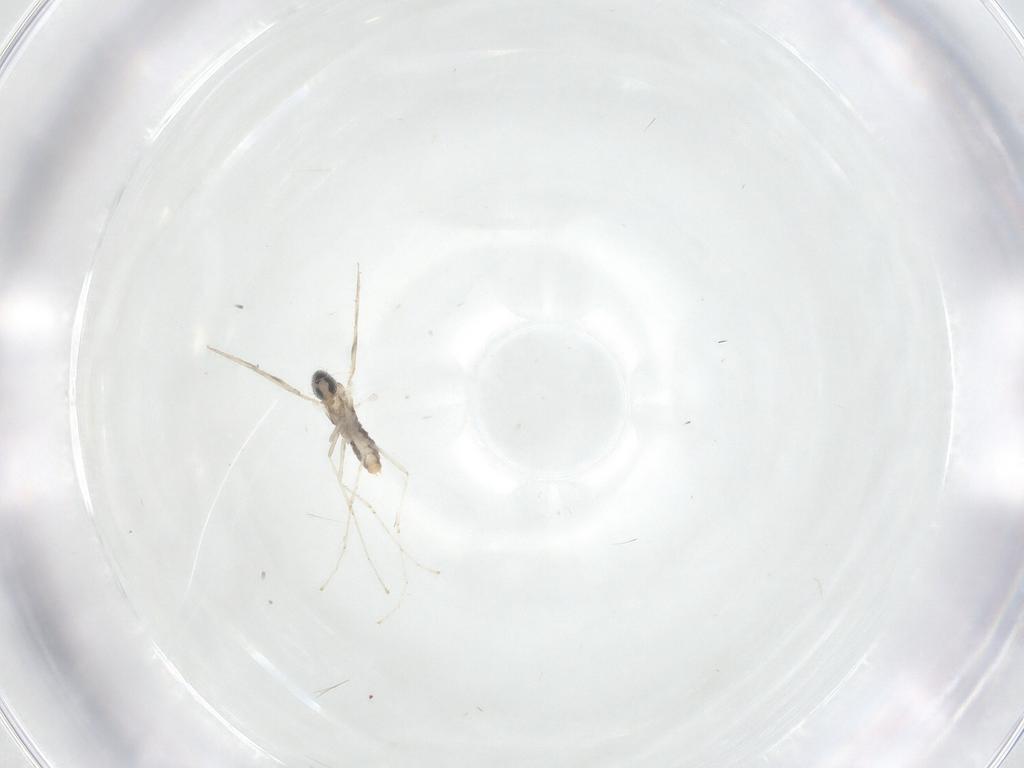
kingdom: Animalia
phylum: Arthropoda
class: Insecta
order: Diptera
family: Sciaridae
